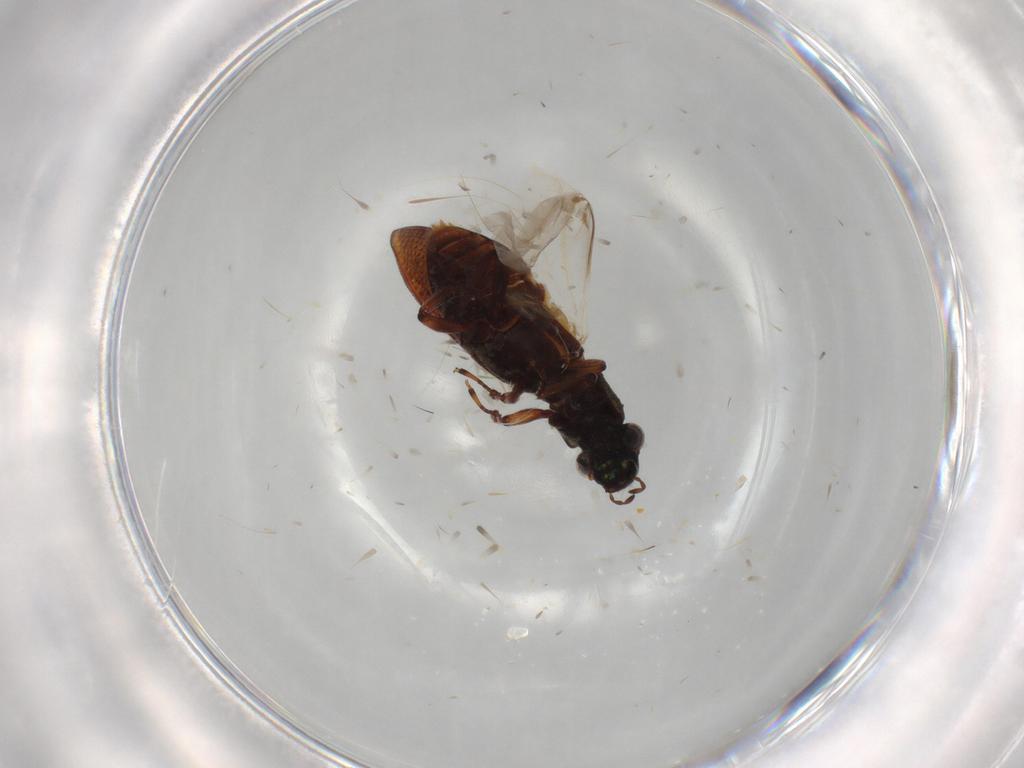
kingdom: Animalia
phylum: Arthropoda
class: Insecta
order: Coleoptera
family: Hydrophilidae
